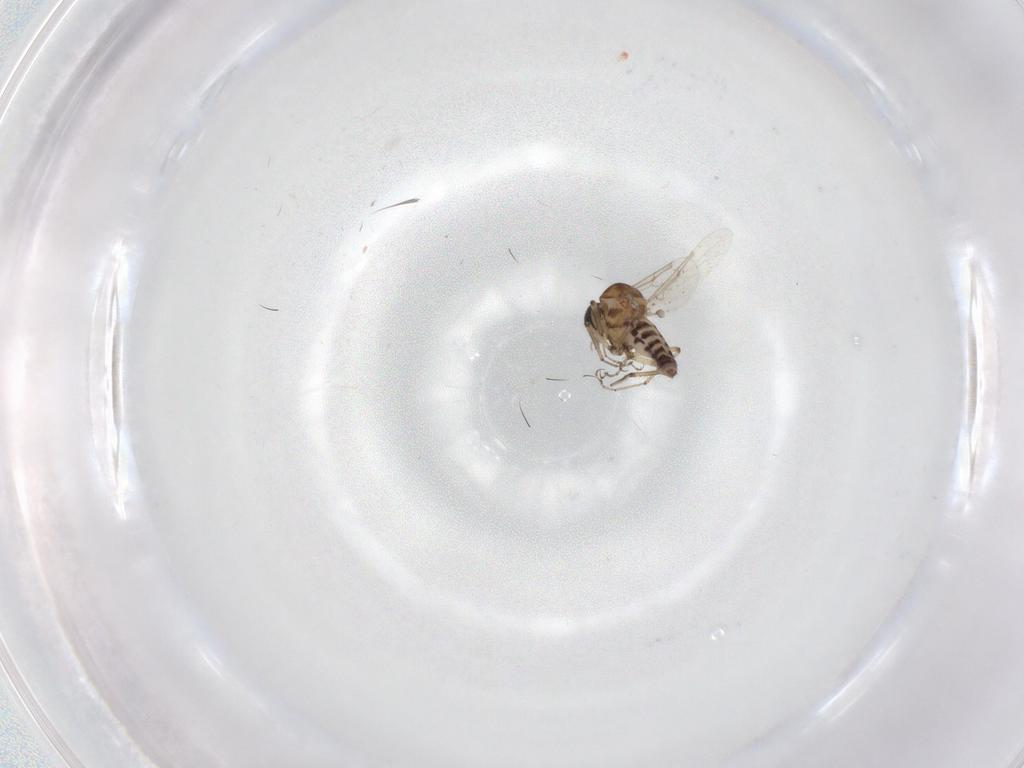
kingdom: Animalia
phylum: Arthropoda
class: Insecta
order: Diptera
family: Ceratopogonidae
